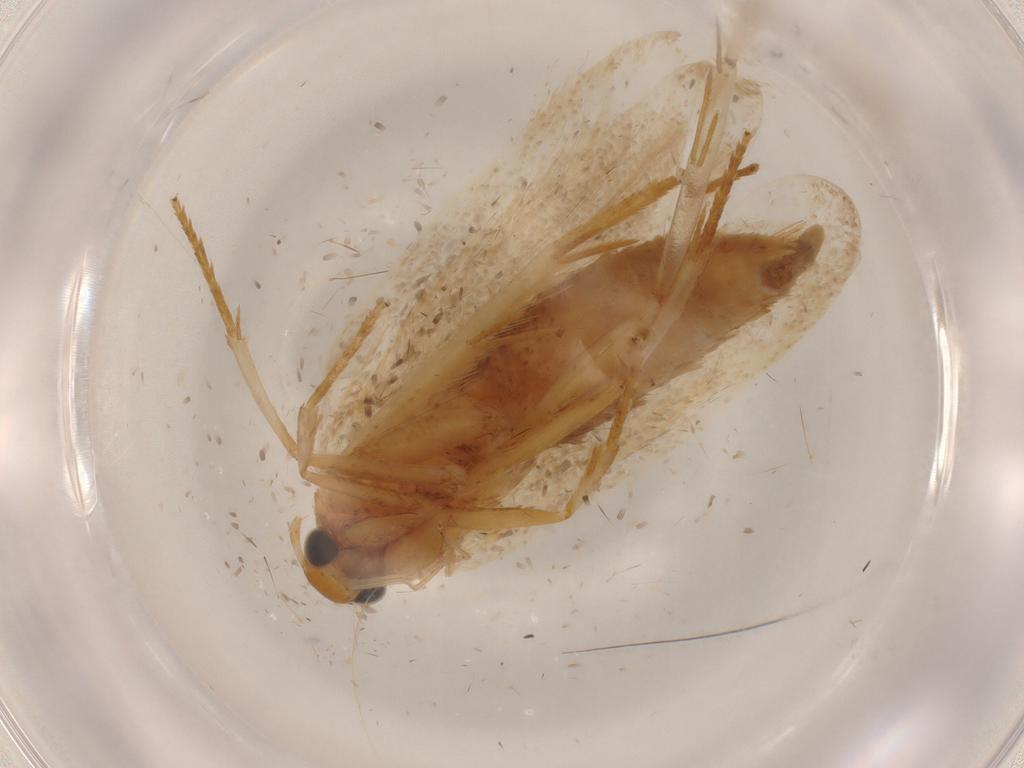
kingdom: Animalia
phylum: Arthropoda
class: Insecta
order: Lepidoptera
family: Gelechiidae
